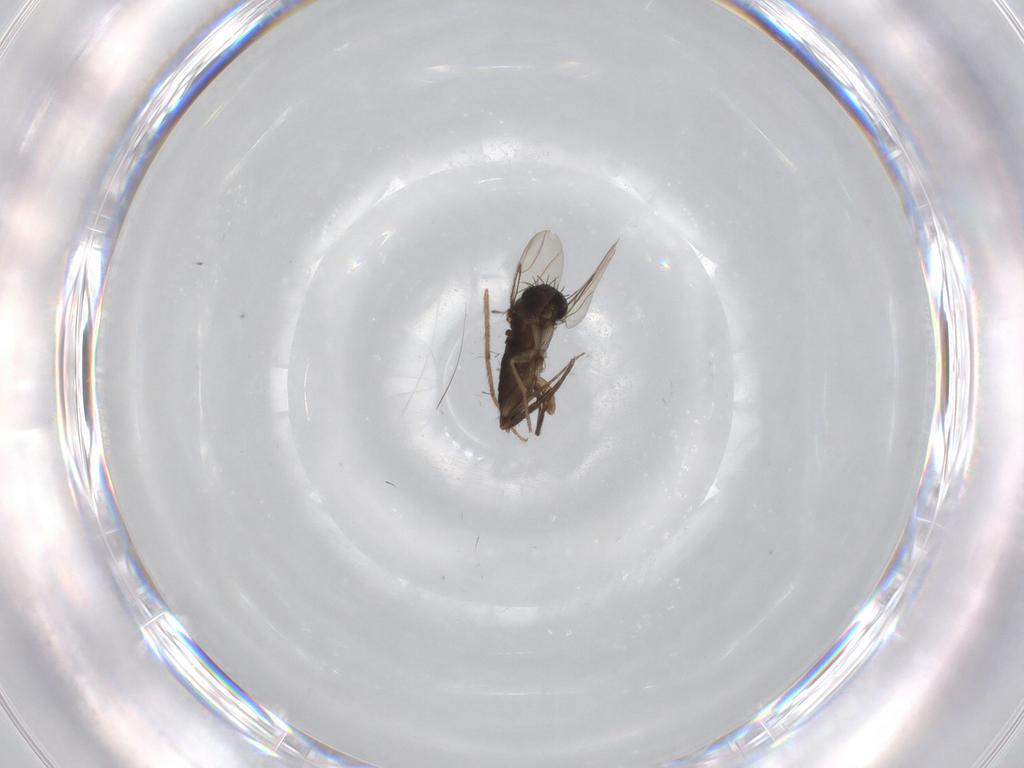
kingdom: Animalia
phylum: Arthropoda
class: Insecta
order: Diptera
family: Phoridae
